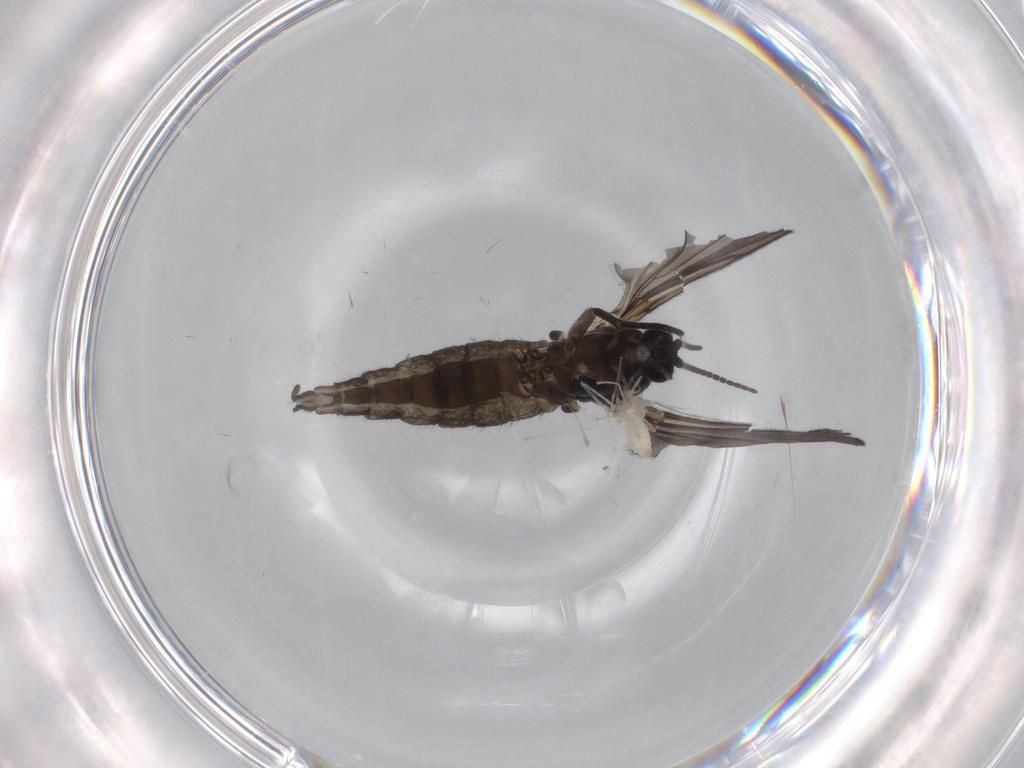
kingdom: Animalia
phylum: Arthropoda
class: Insecta
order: Diptera
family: Sciaridae
